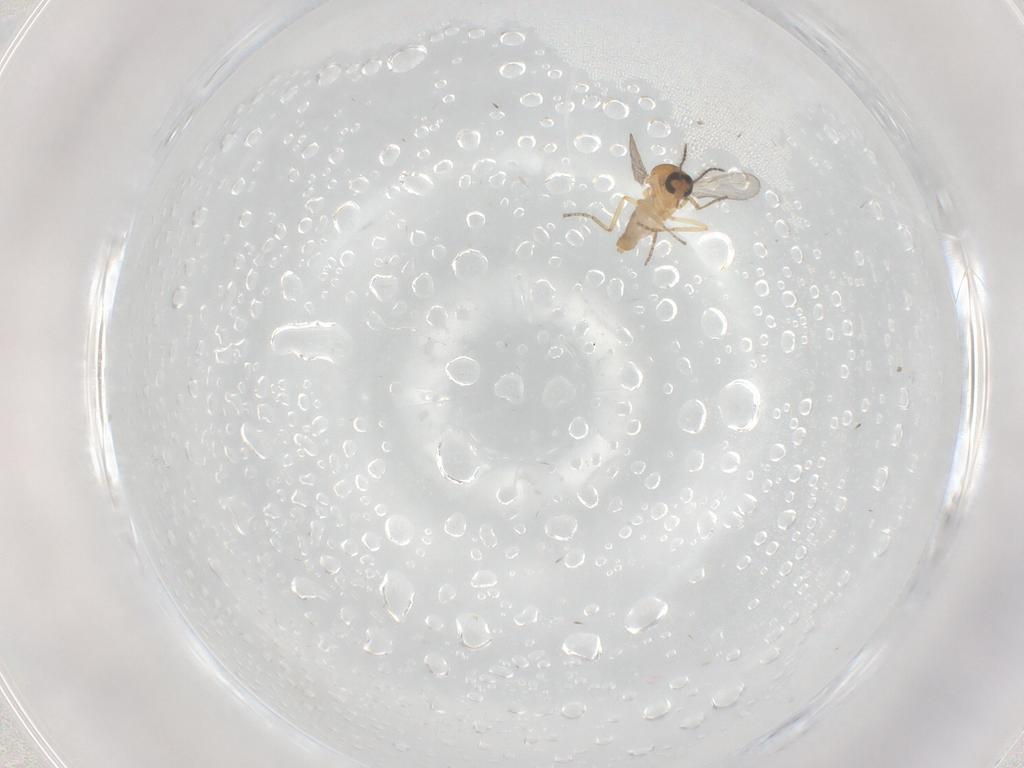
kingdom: Animalia
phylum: Arthropoda
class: Insecta
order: Diptera
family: Ceratopogonidae
